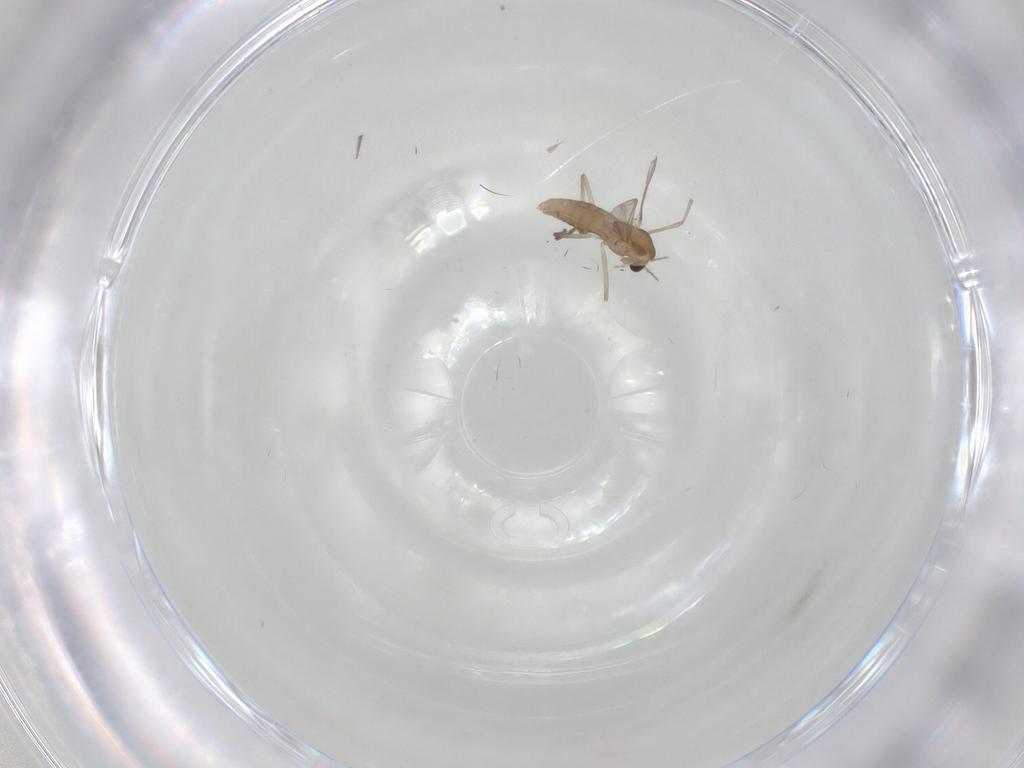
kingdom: Animalia
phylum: Arthropoda
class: Insecta
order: Diptera
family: Chironomidae
